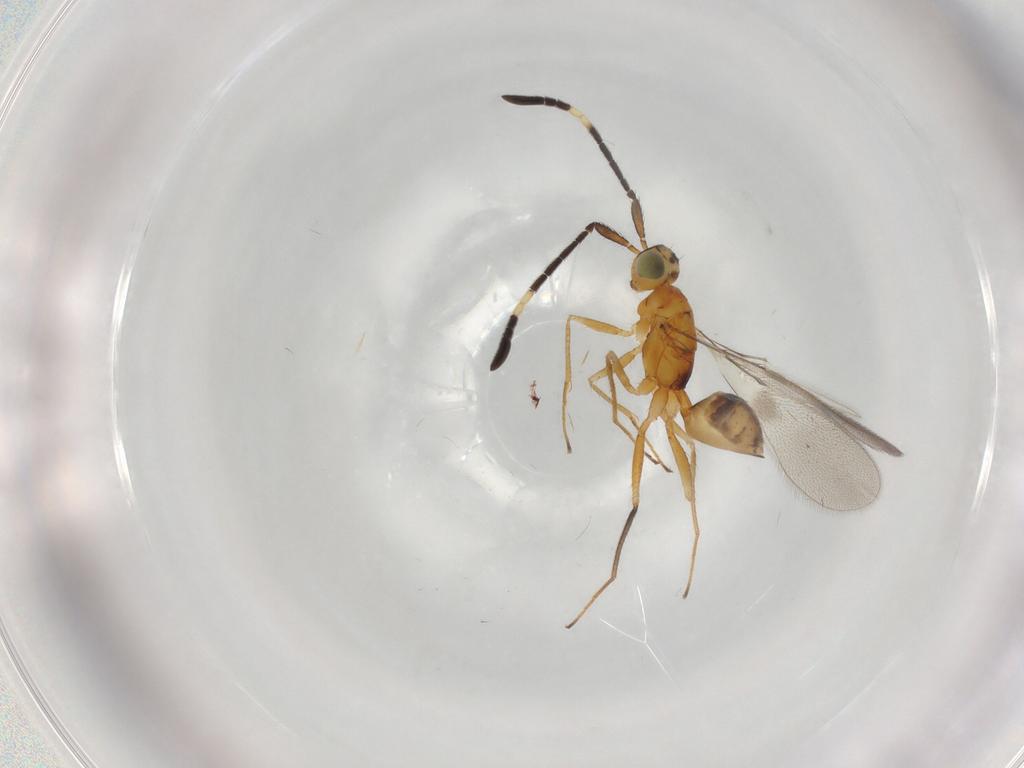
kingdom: Animalia
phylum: Arthropoda
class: Insecta
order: Hymenoptera
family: Mymaridae
